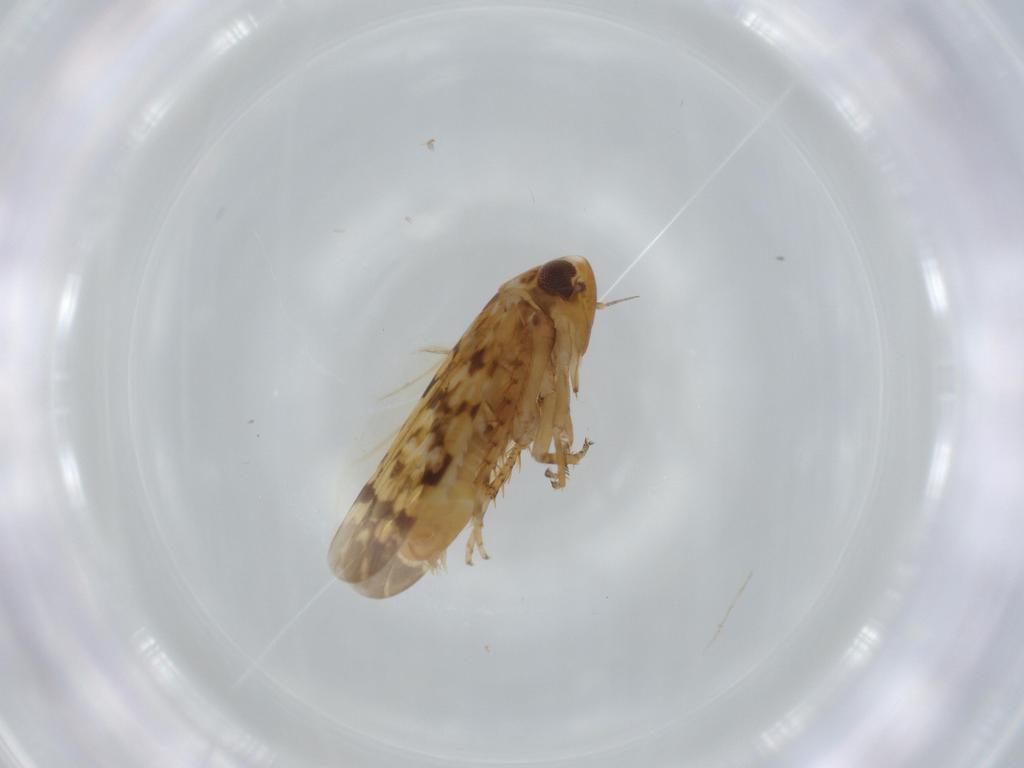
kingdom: Animalia
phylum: Arthropoda
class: Insecta
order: Hemiptera
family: Cicadellidae
